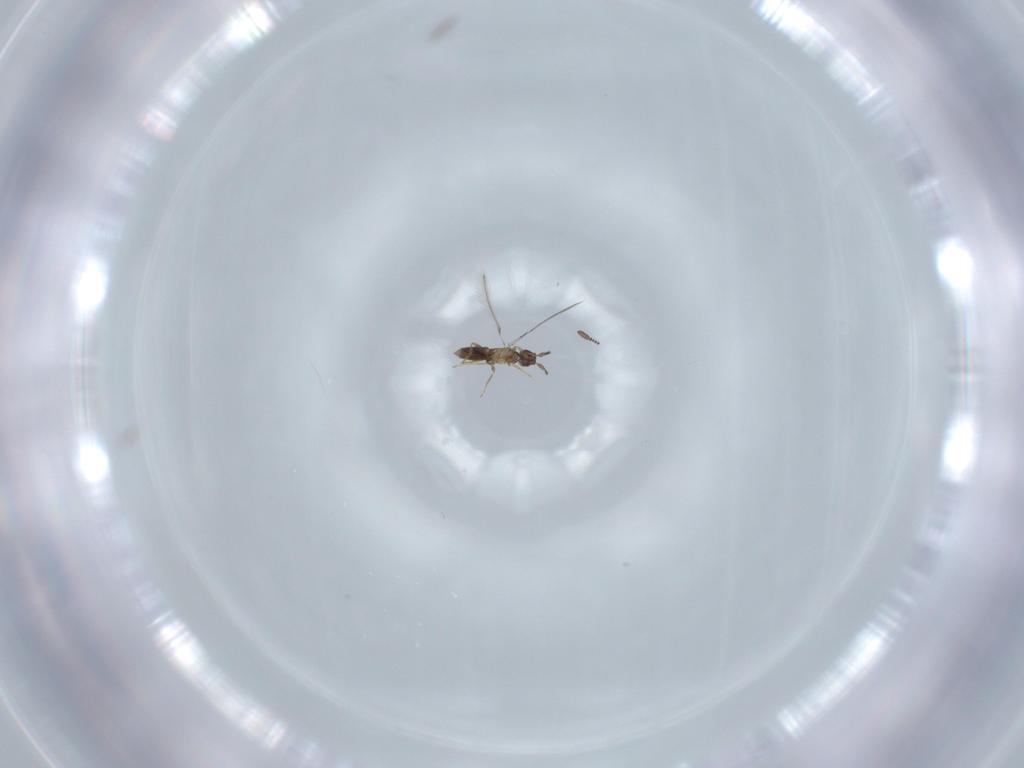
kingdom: Animalia
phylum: Arthropoda
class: Insecta
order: Hymenoptera
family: Mymaridae
